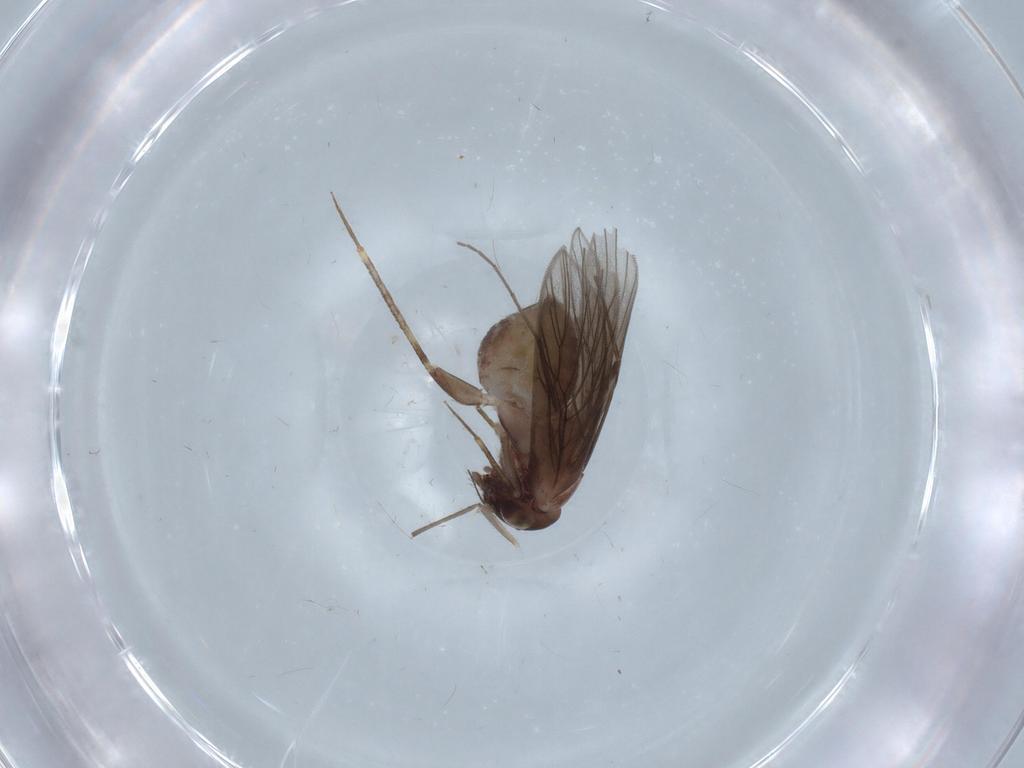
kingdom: Animalia
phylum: Arthropoda
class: Insecta
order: Psocodea
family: Lepidopsocidae
